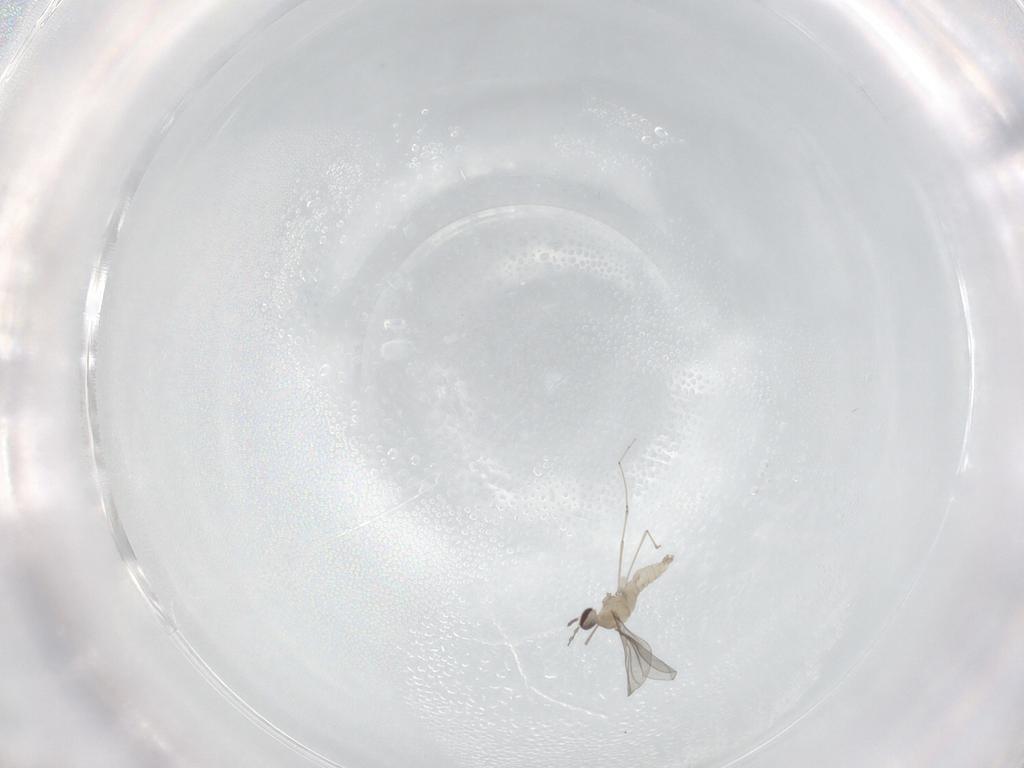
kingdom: Animalia
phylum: Arthropoda
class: Insecta
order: Diptera
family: Cecidomyiidae
